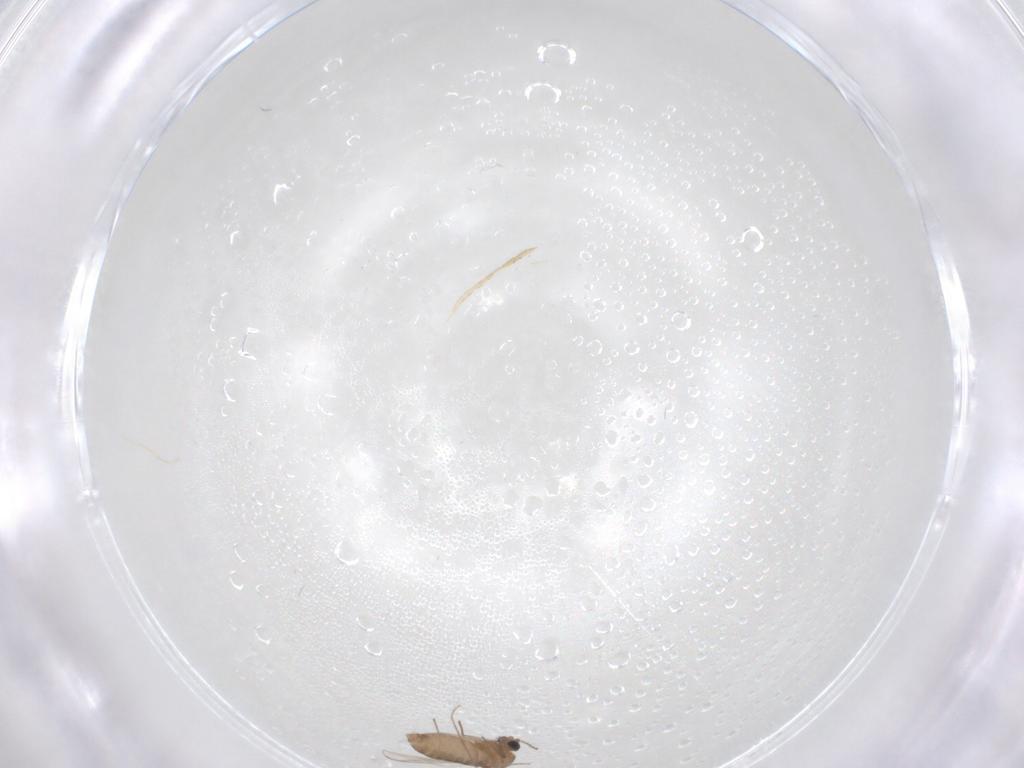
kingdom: Animalia
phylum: Arthropoda
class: Insecta
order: Diptera
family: Chironomidae
